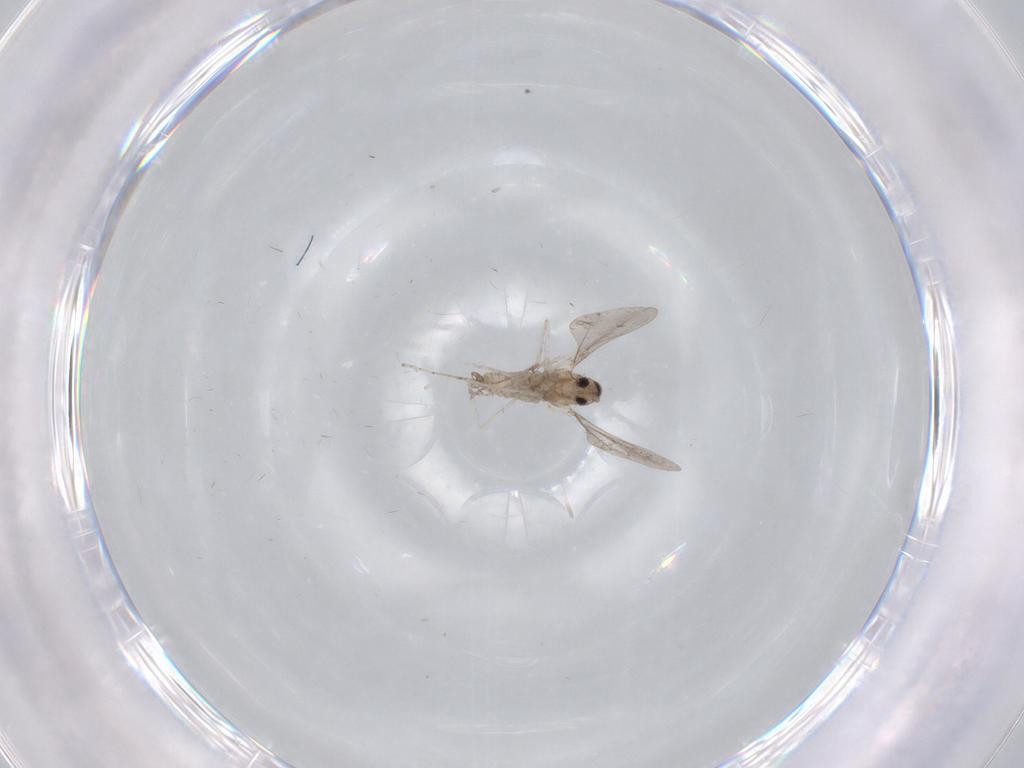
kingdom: Animalia
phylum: Arthropoda
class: Insecta
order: Diptera
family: Cecidomyiidae
